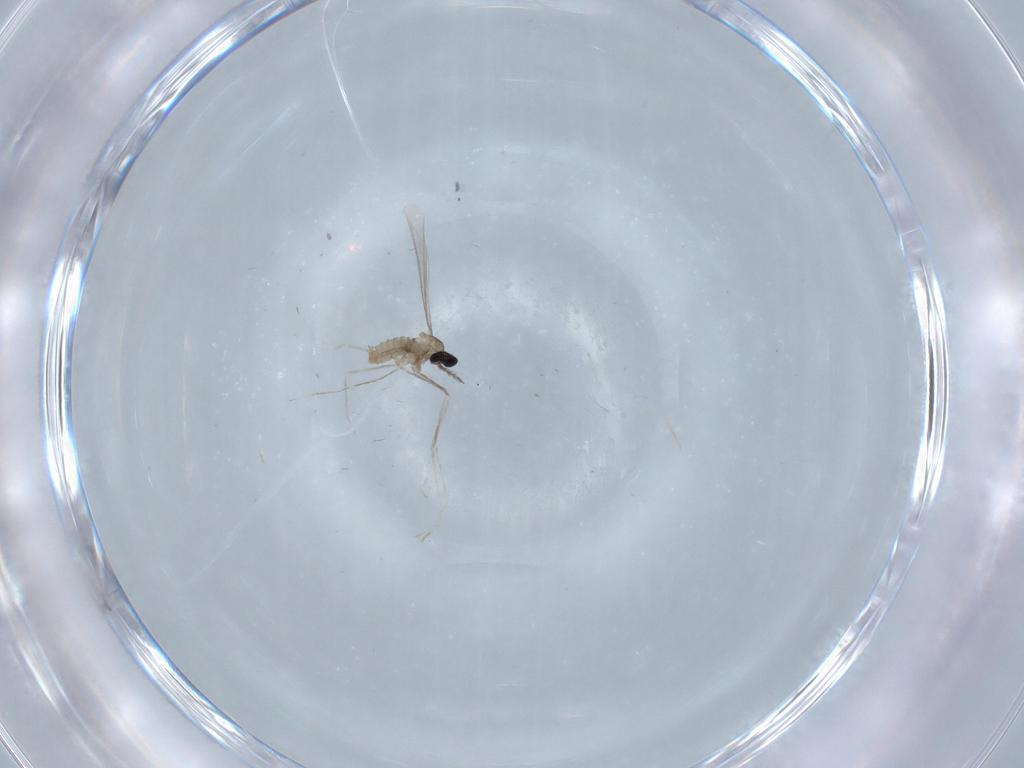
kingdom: Animalia
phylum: Arthropoda
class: Insecta
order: Diptera
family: Cecidomyiidae
